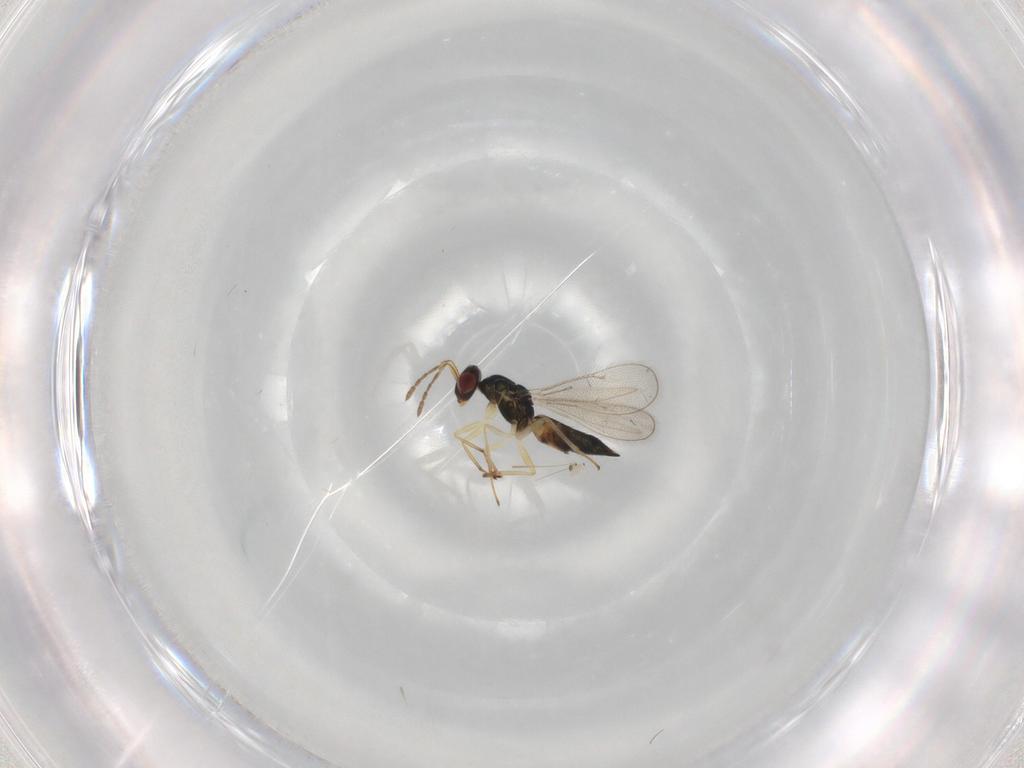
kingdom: Animalia
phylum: Arthropoda
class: Insecta
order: Hymenoptera
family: Eulophidae
